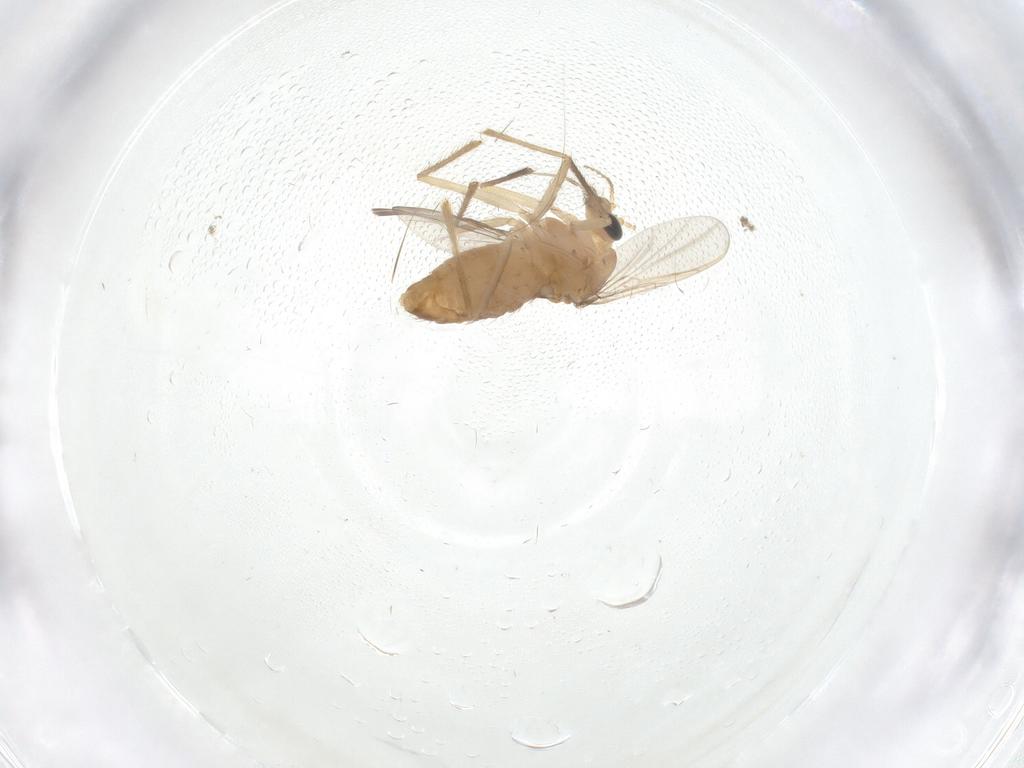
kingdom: Animalia
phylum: Arthropoda
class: Insecta
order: Diptera
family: Chironomidae
